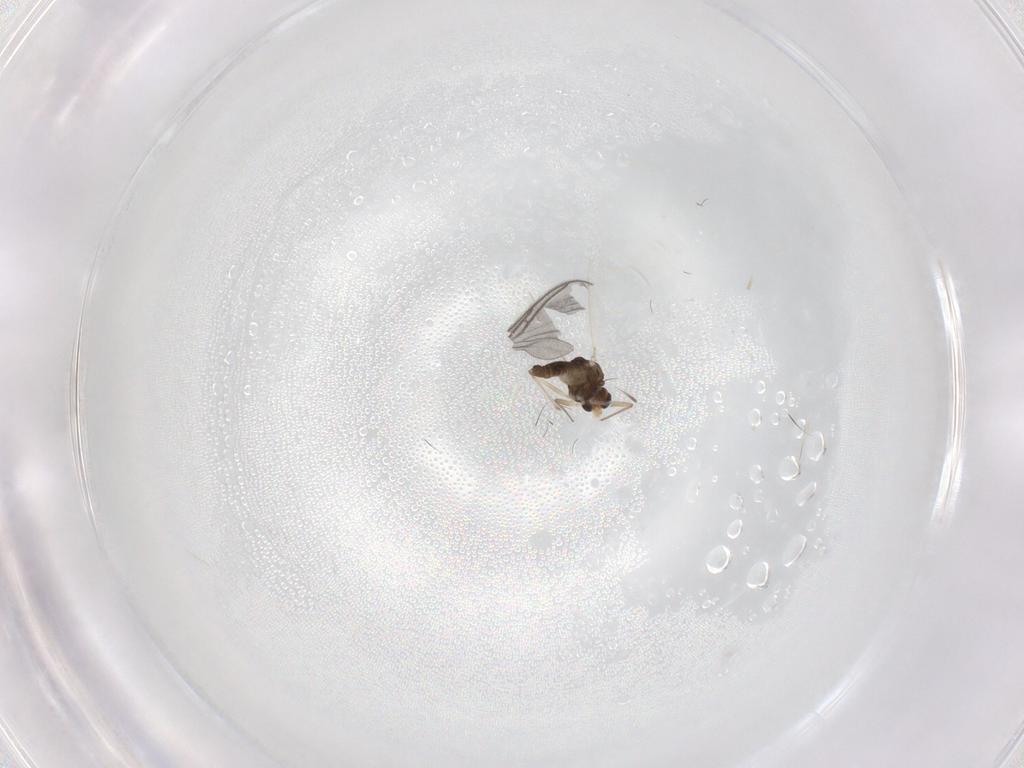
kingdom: Animalia
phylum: Arthropoda
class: Insecta
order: Diptera
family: Chironomidae
